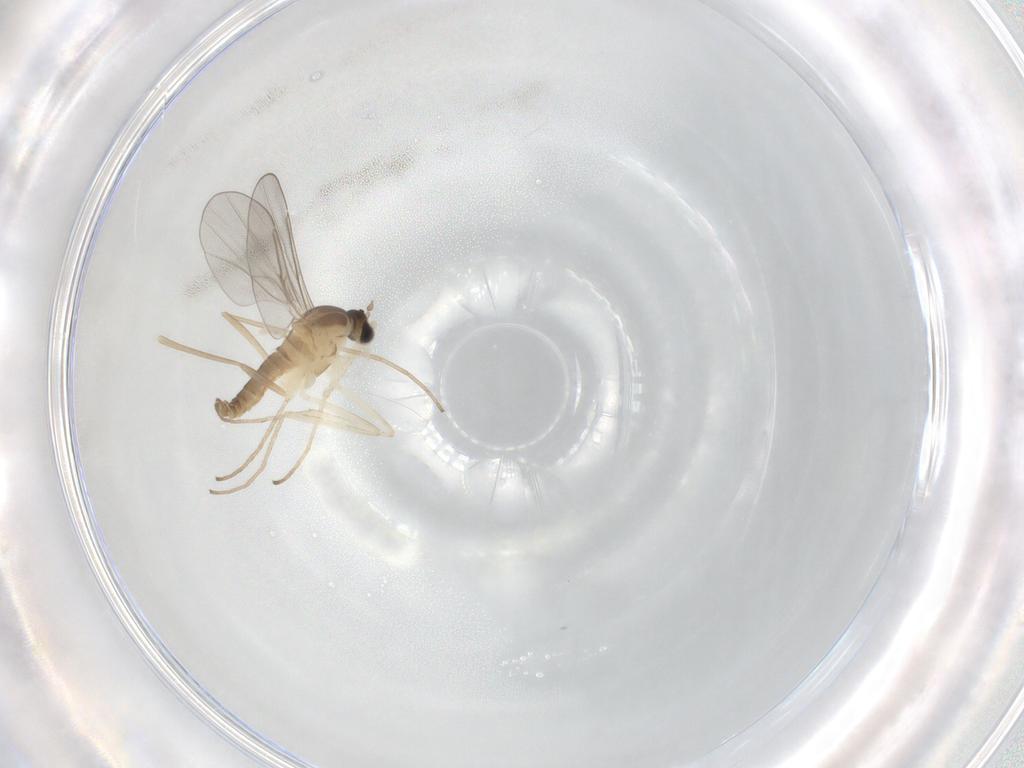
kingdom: Animalia
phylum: Arthropoda
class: Insecta
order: Diptera
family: Cecidomyiidae
